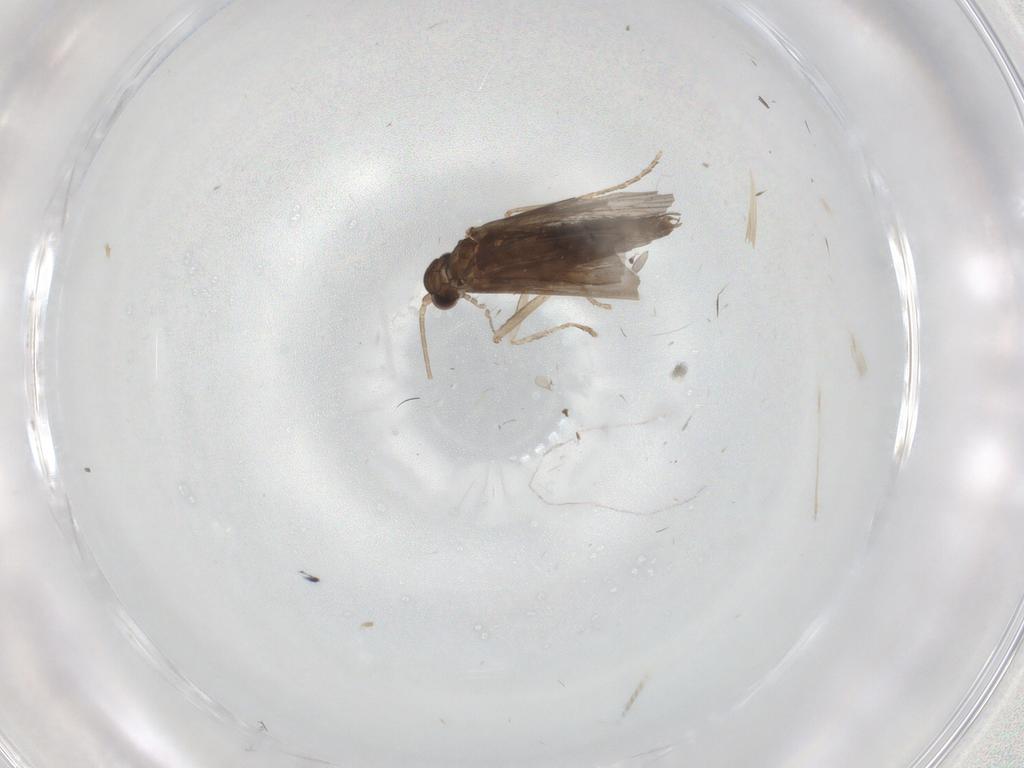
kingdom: Animalia
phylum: Arthropoda
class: Insecta
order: Trichoptera
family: Xiphocentronidae
